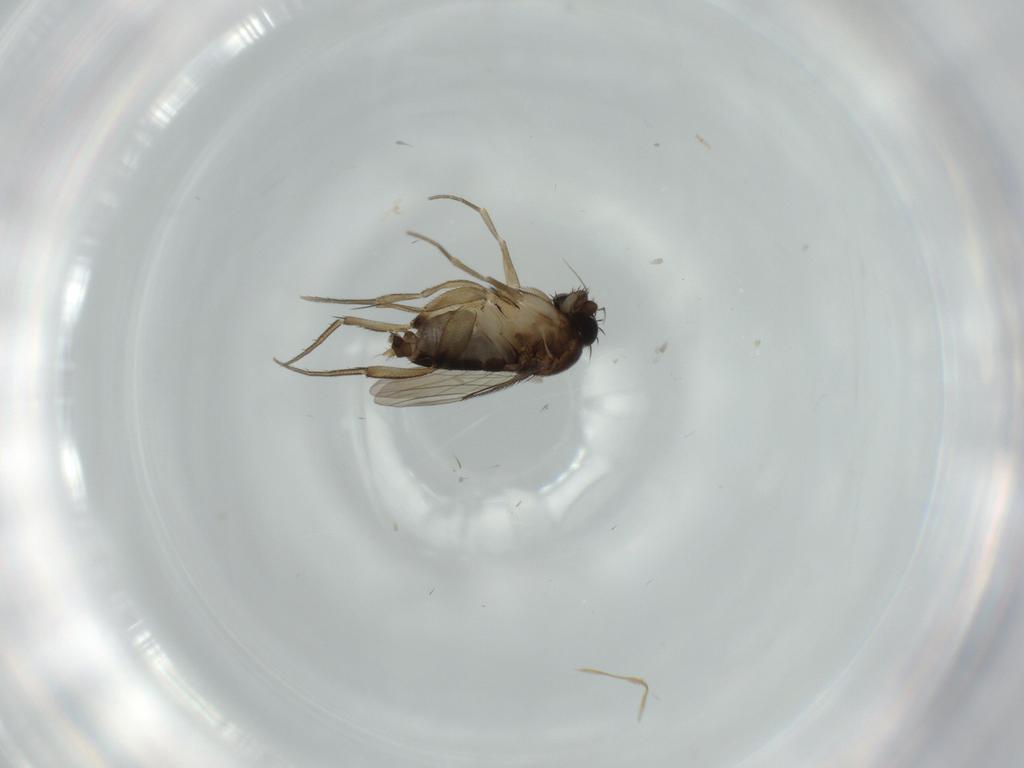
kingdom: Animalia
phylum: Arthropoda
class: Insecta
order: Diptera
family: Phoridae
